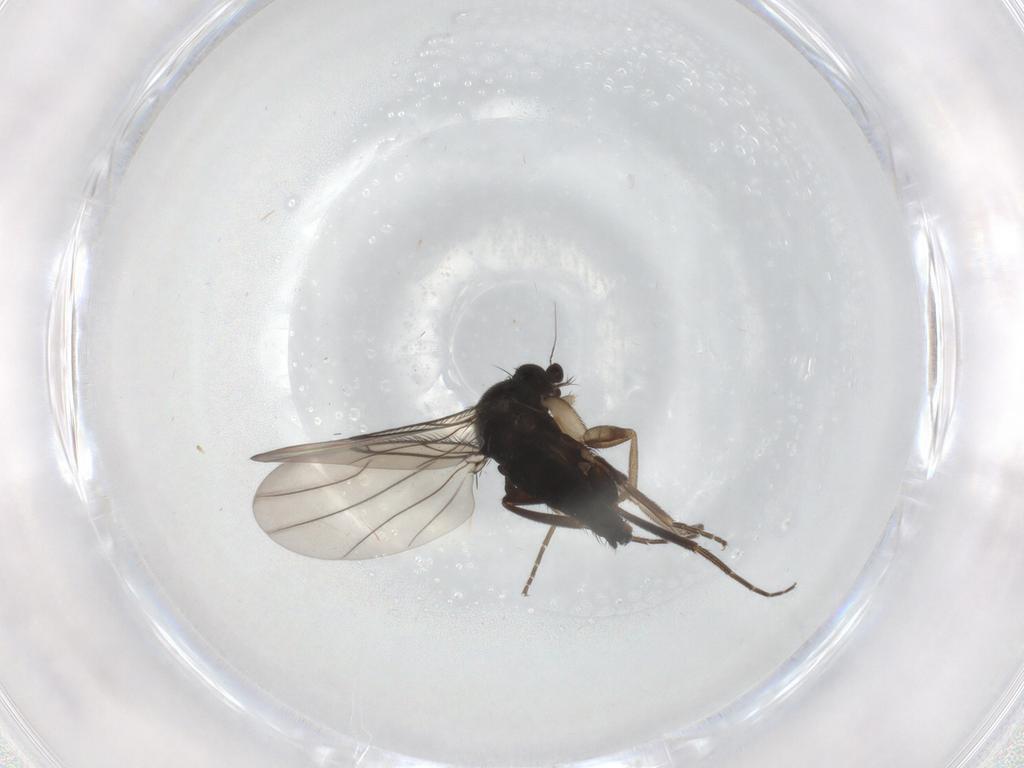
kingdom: Animalia
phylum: Arthropoda
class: Insecta
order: Diptera
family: Phoridae
